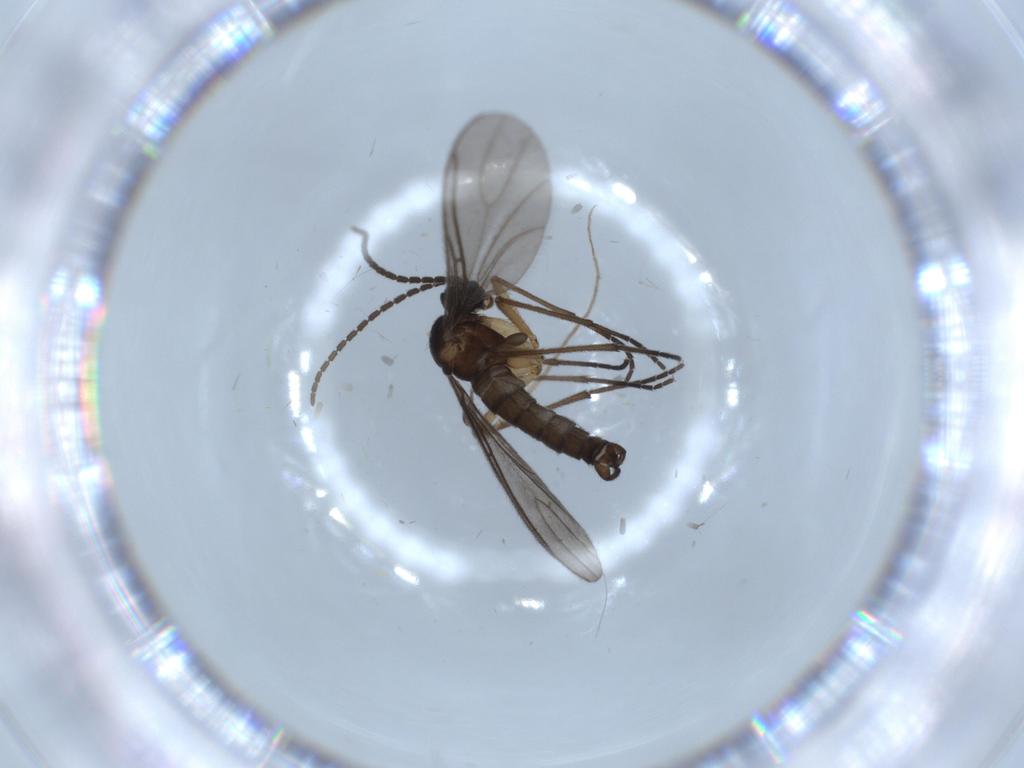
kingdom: Animalia
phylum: Arthropoda
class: Insecta
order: Diptera
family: Sciaridae
